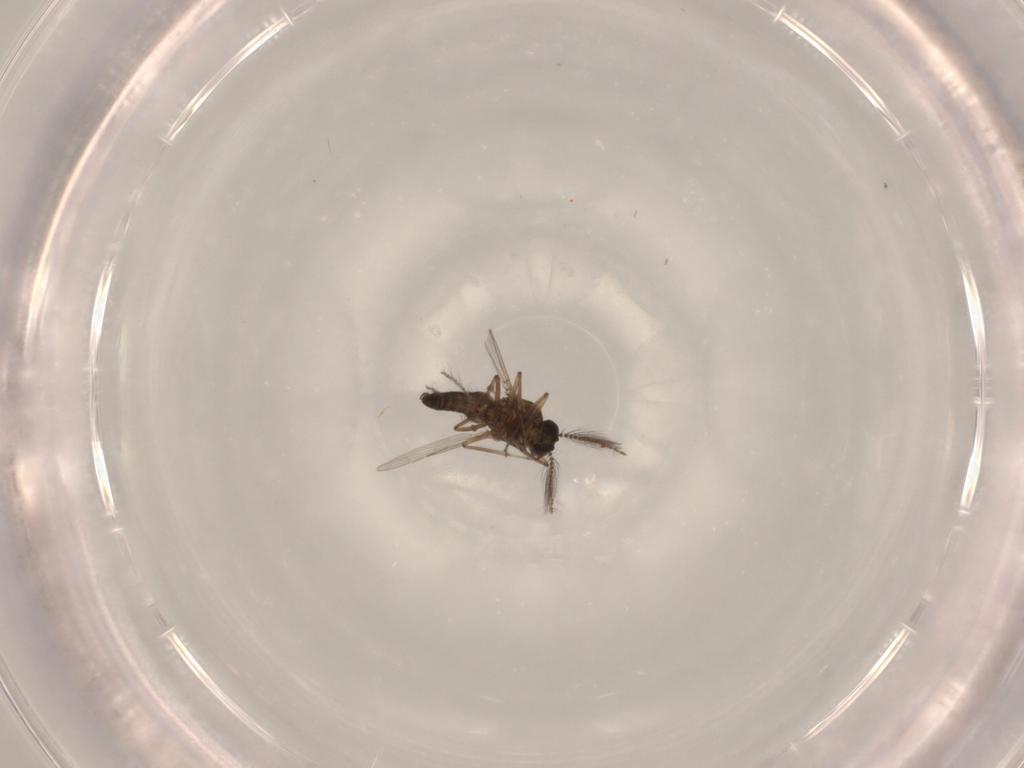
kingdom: Animalia
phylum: Arthropoda
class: Insecta
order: Diptera
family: Ceratopogonidae
